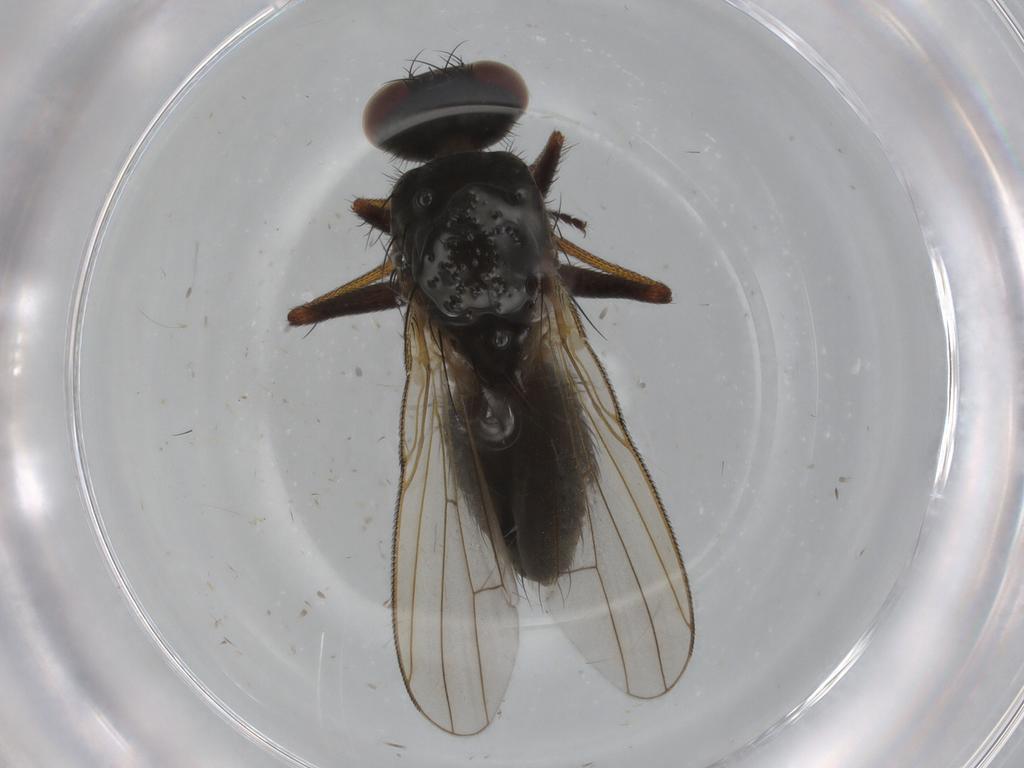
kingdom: Animalia
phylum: Arthropoda
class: Insecta
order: Diptera
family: Muscidae
